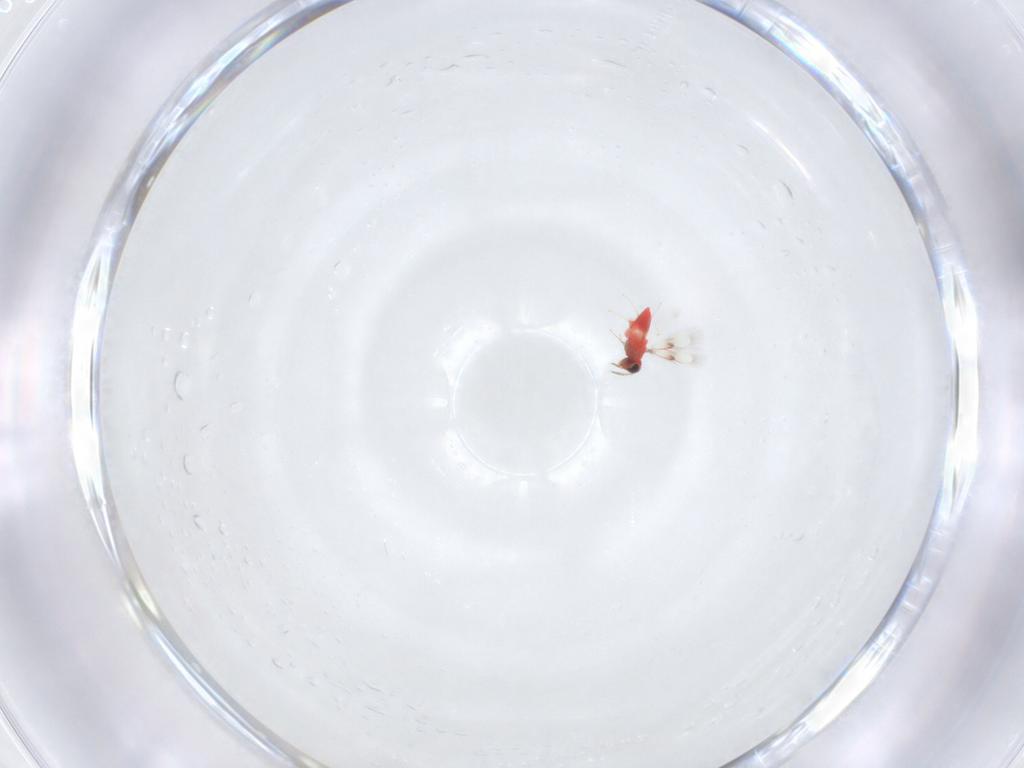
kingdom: Animalia
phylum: Arthropoda
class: Insecta
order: Hymenoptera
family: Trichogrammatidae
